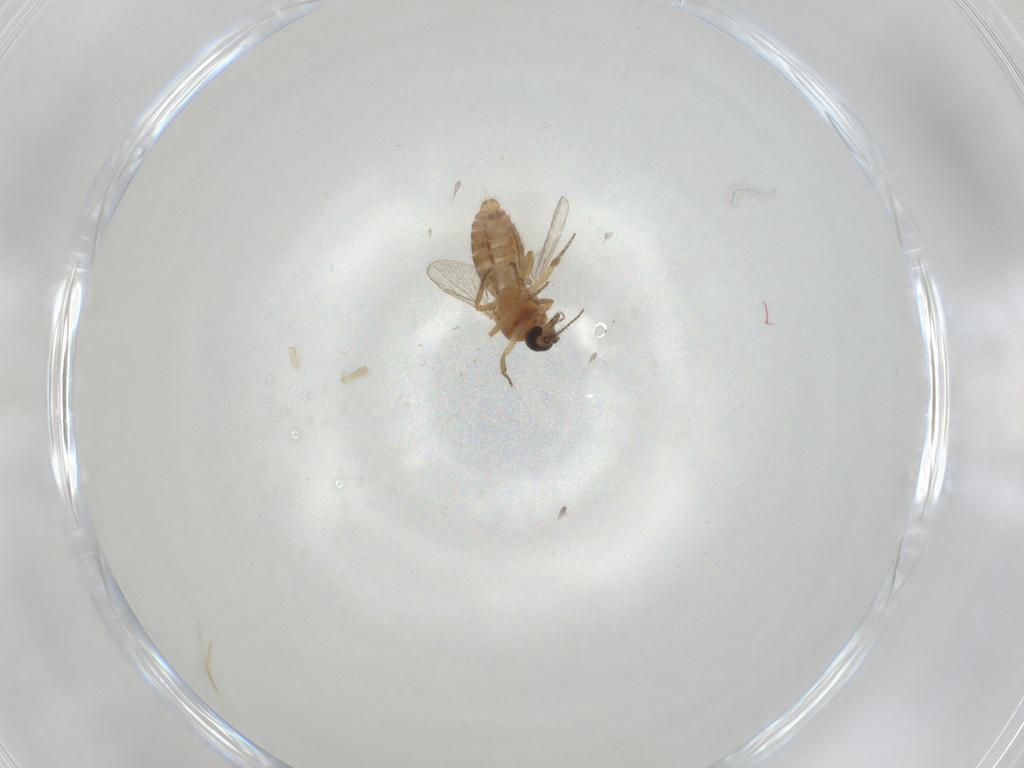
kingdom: Animalia
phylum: Arthropoda
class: Insecta
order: Diptera
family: Ceratopogonidae
